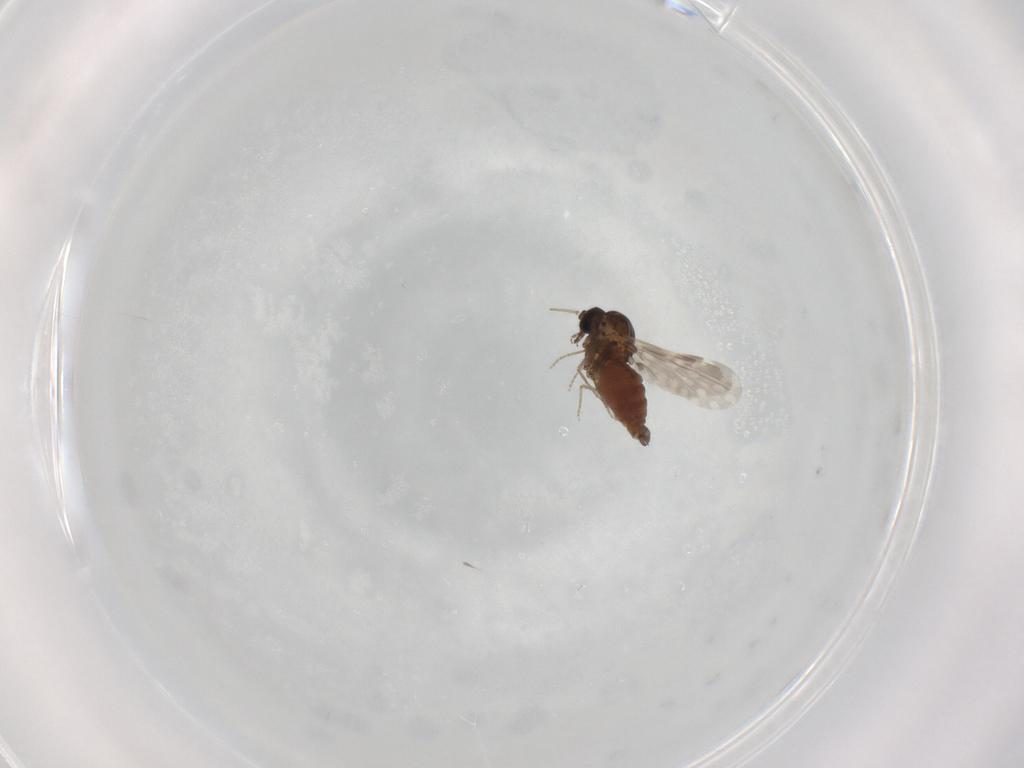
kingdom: Animalia
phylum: Arthropoda
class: Insecta
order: Diptera
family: Ceratopogonidae
